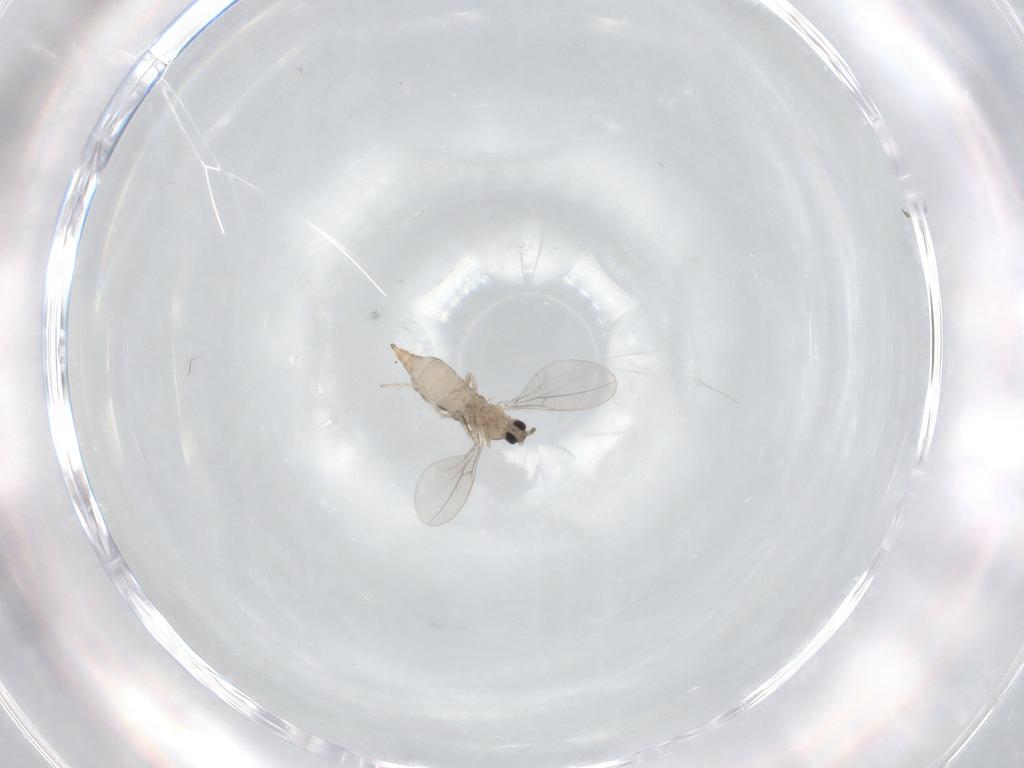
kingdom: Animalia
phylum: Arthropoda
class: Insecta
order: Diptera
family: Cecidomyiidae
